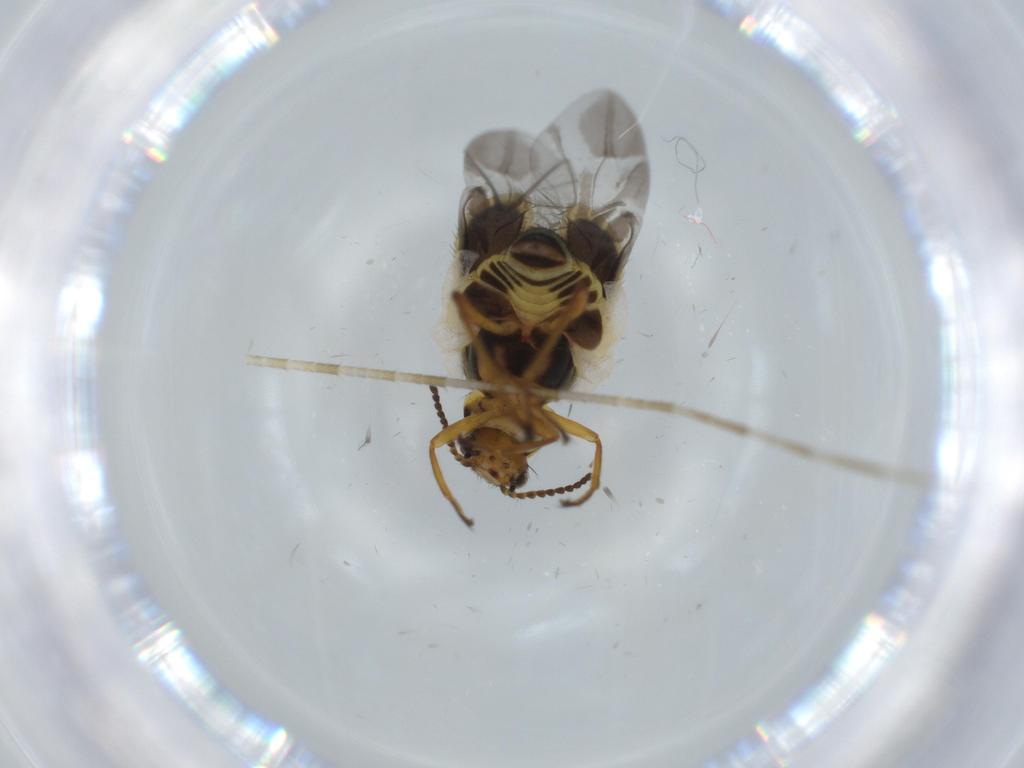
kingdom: Animalia
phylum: Arthropoda
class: Insecta
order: Coleoptera
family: Melyridae
